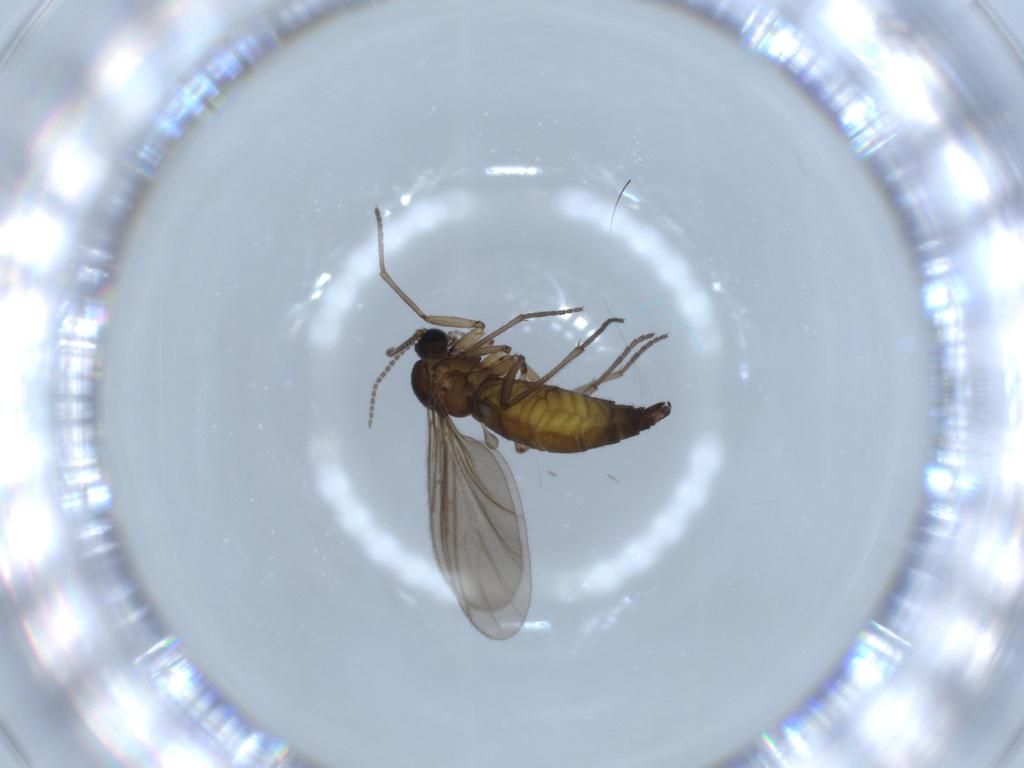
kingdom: Animalia
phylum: Arthropoda
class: Insecta
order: Diptera
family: Sciaridae
